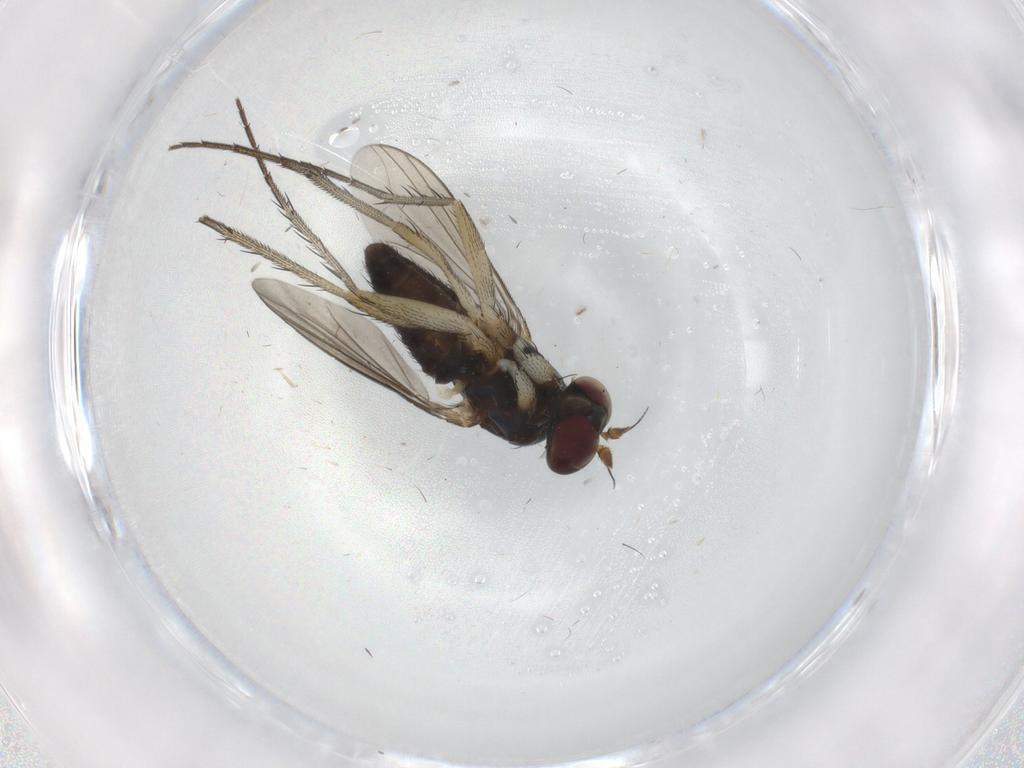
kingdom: Animalia
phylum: Arthropoda
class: Insecta
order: Diptera
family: Dolichopodidae
